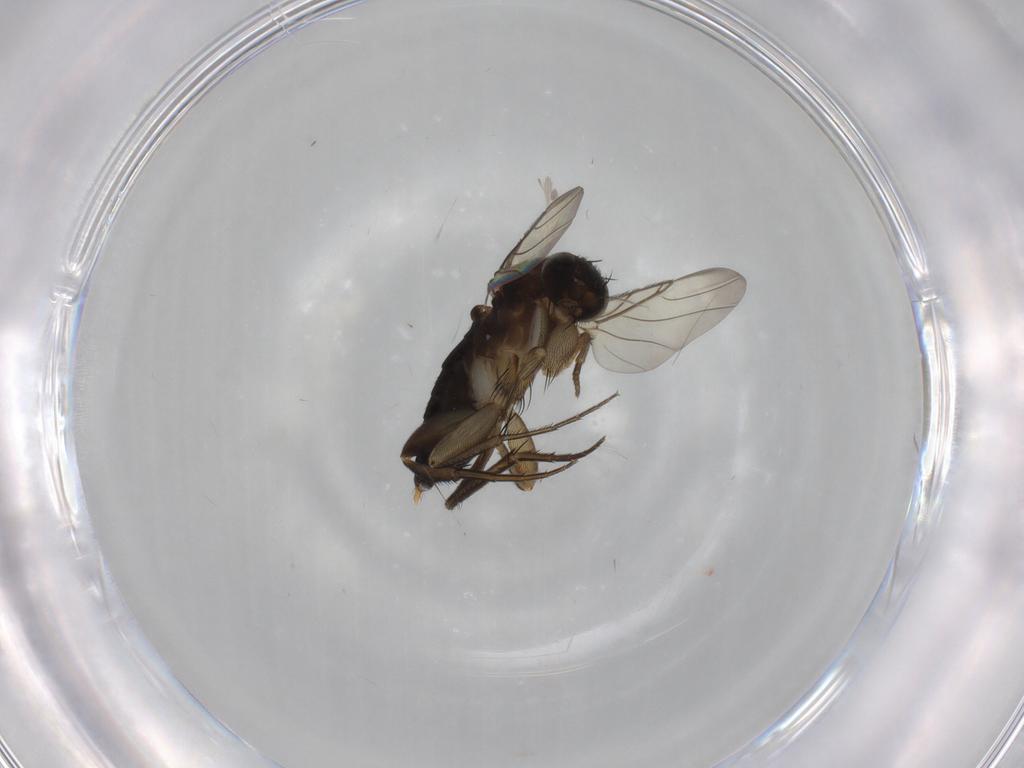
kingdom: Animalia
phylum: Arthropoda
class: Insecta
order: Diptera
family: Phoridae
